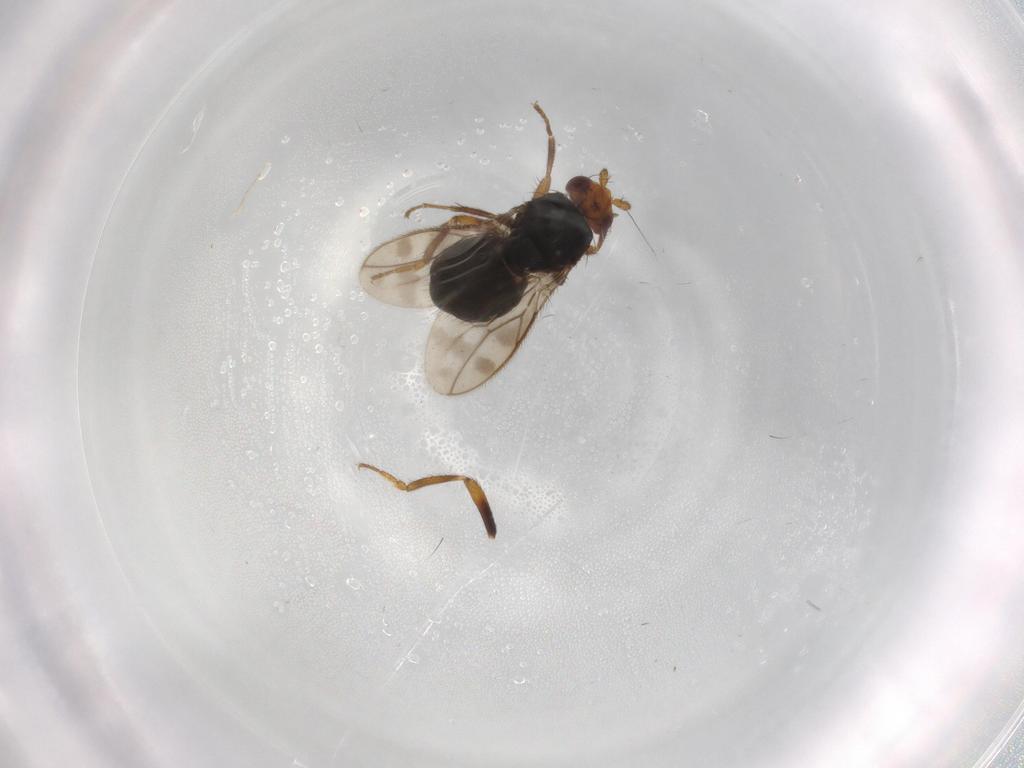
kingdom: Animalia
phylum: Arthropoda
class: Insecta
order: Diptera
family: Sphaeroceridae
